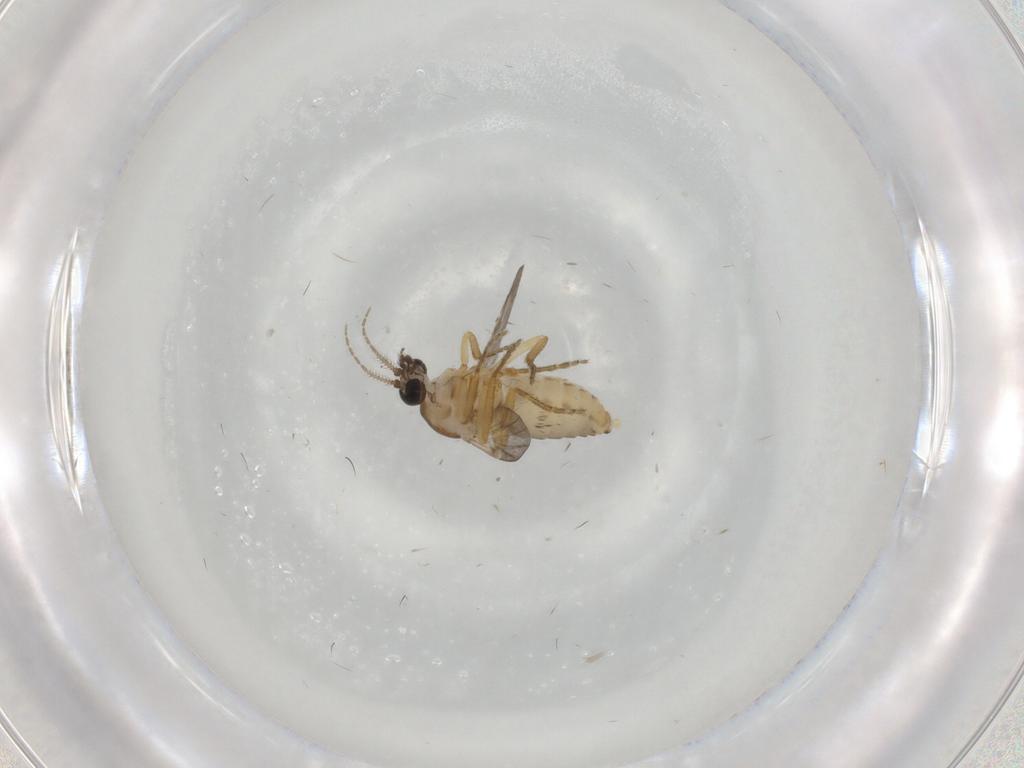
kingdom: Animalia
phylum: Arthropoda
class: Insecta
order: Diptera
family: Ceratopogonidae
